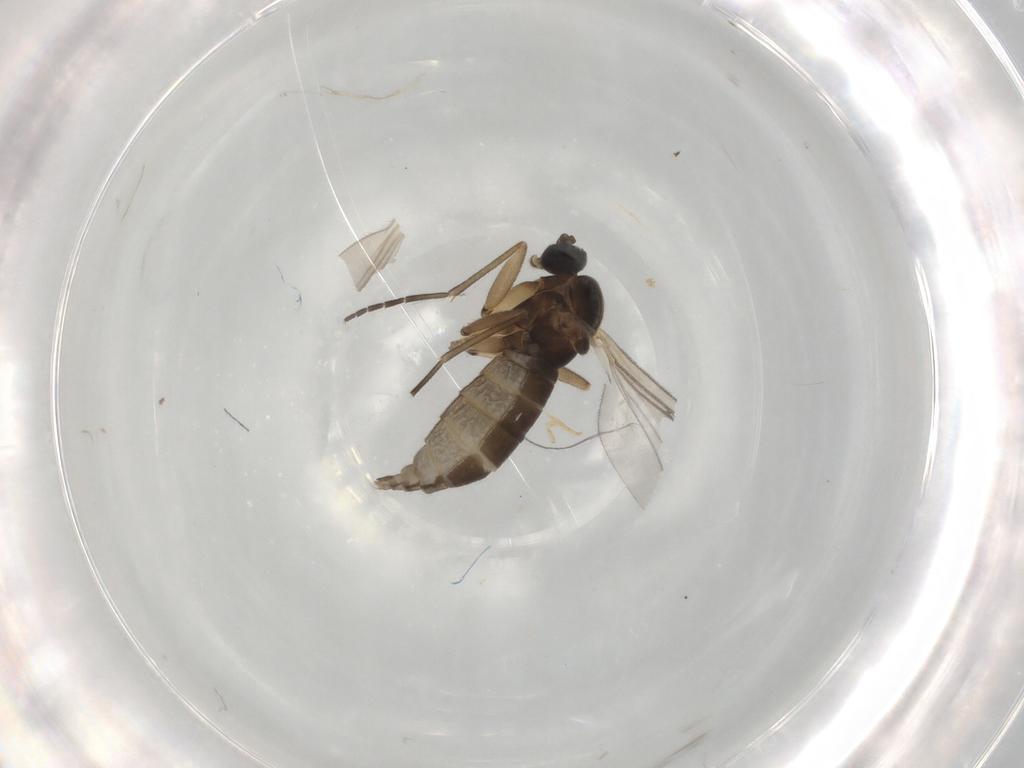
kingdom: Animalia
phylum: Arthropoda
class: Insecta
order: Diptera
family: Sciaridae
